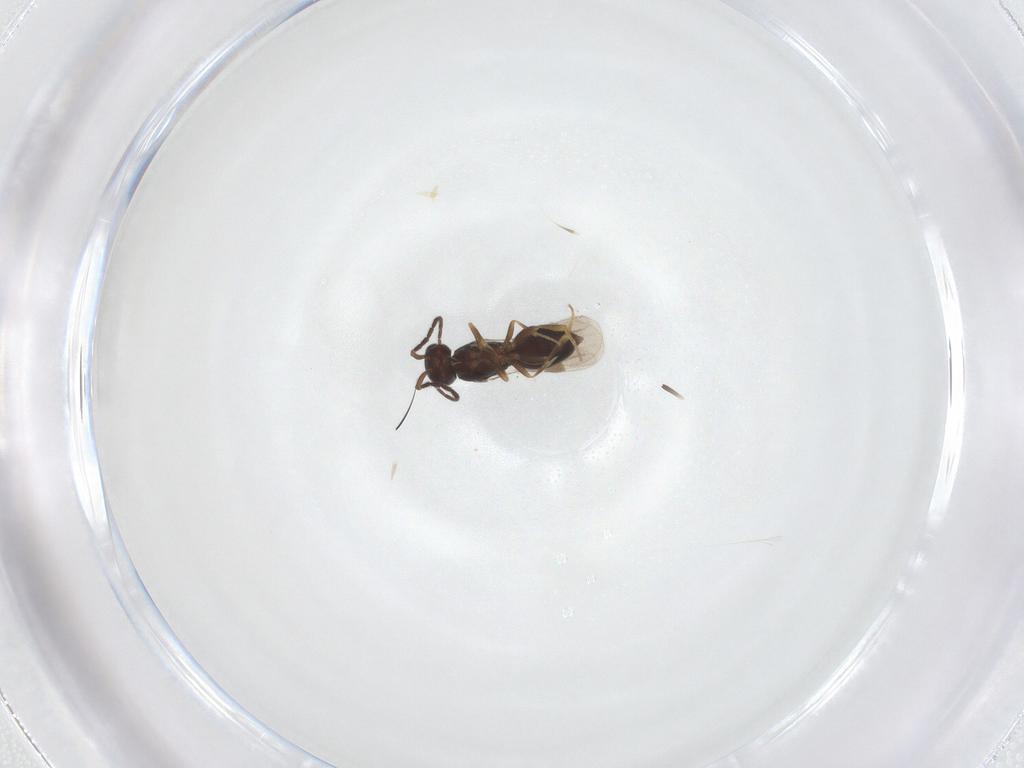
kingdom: Animalia
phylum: Arthropoda
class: Insecta
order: Hymenoptera
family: Megaspilidae
